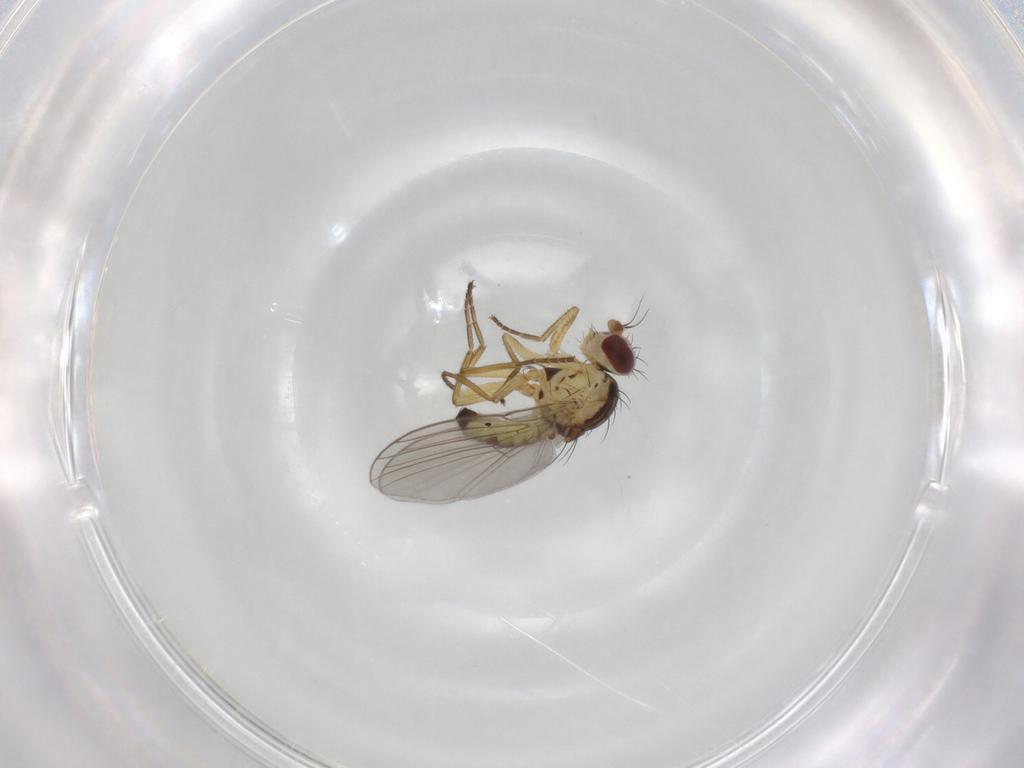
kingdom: Animalia
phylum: Arthropoda
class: Insecta
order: Diptera
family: Agromyzidae
